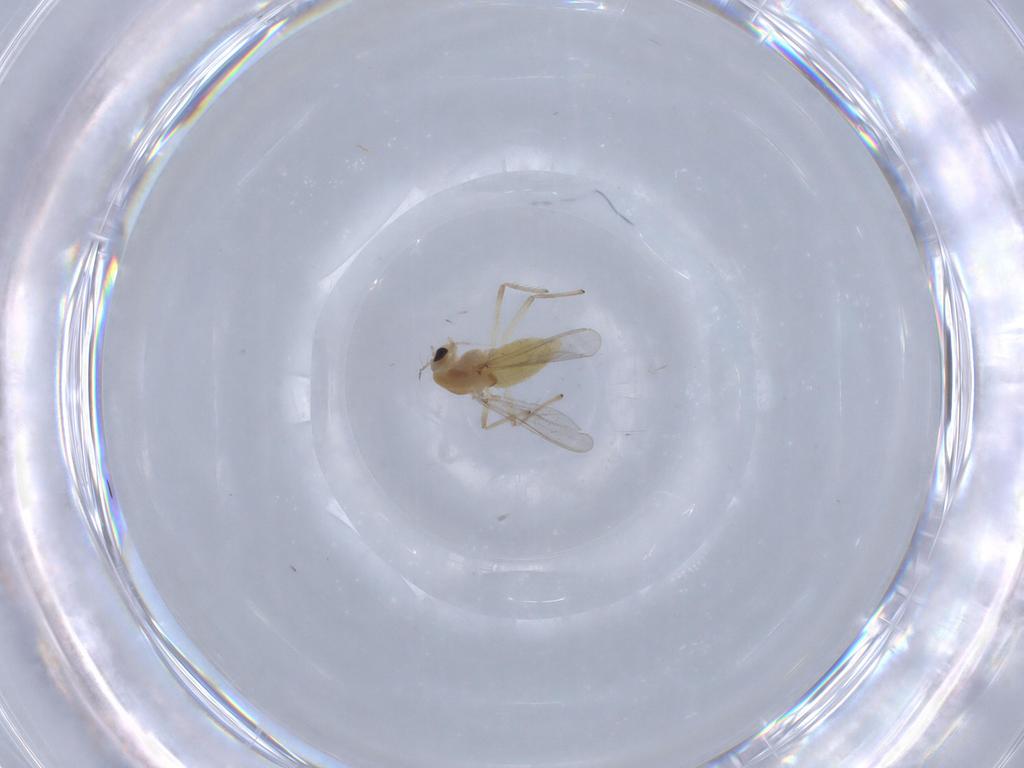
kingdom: Animalia
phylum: Arthropoda
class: Insecta
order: Diptera
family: Chironomidae
